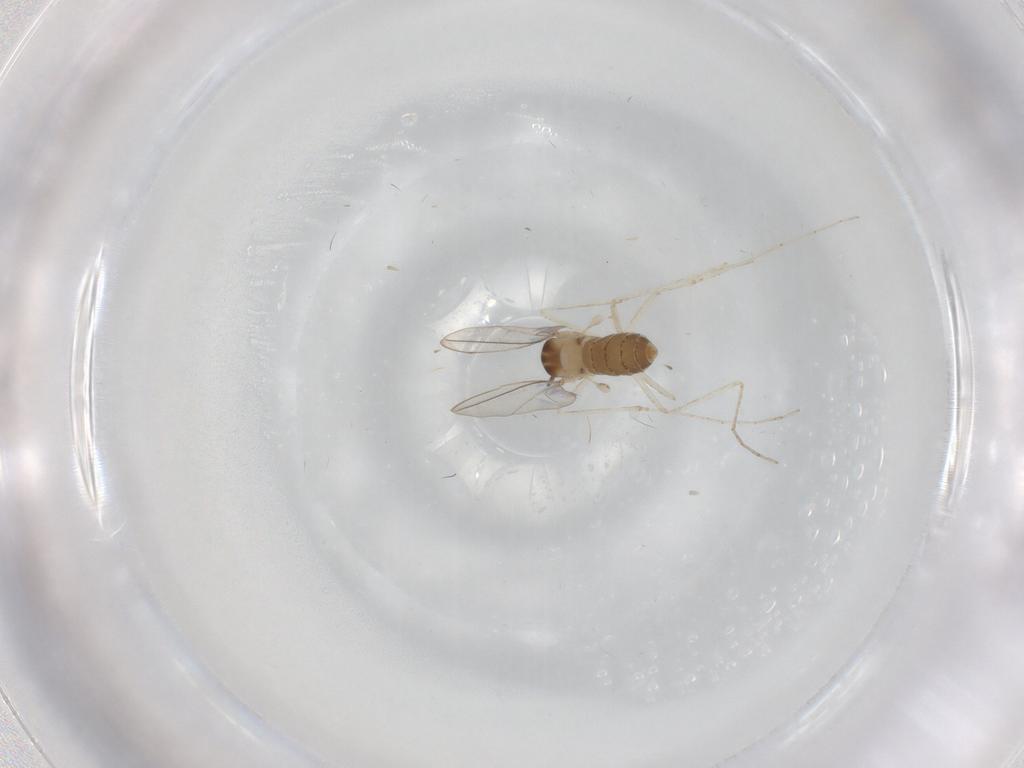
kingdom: Animalia
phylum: Arthropoda
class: Insecta
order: Diptera
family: Cecidomyiidae
